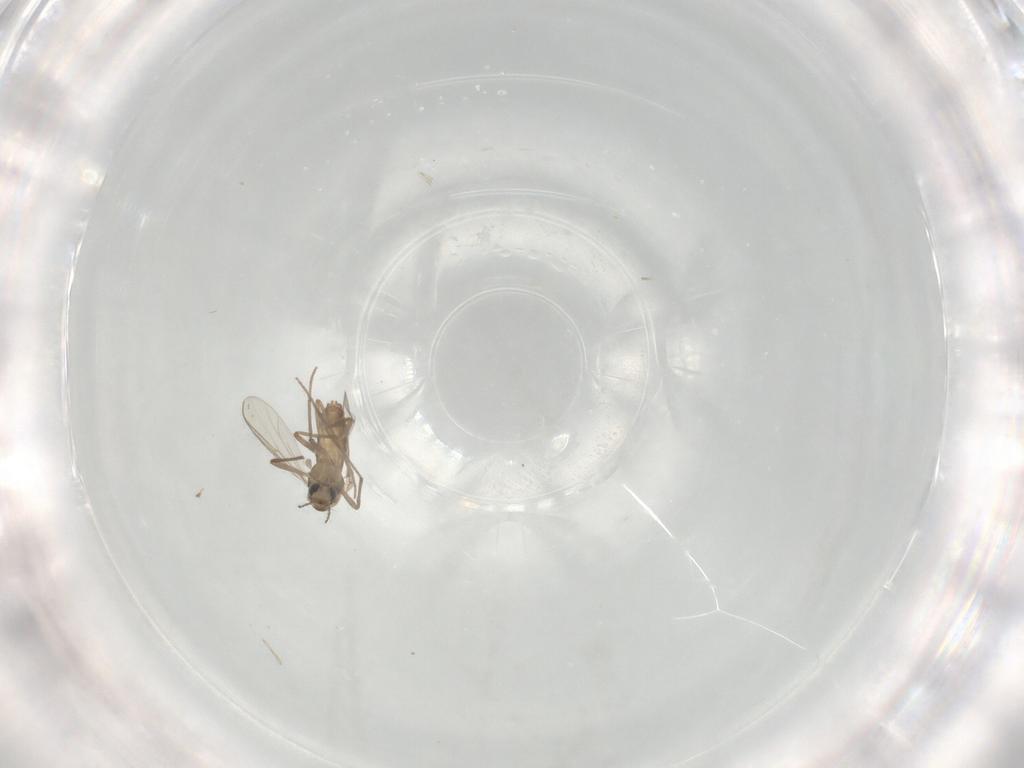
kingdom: Animalia
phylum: Arthropoda
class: Insecta
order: Diptera
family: Chironomidae
